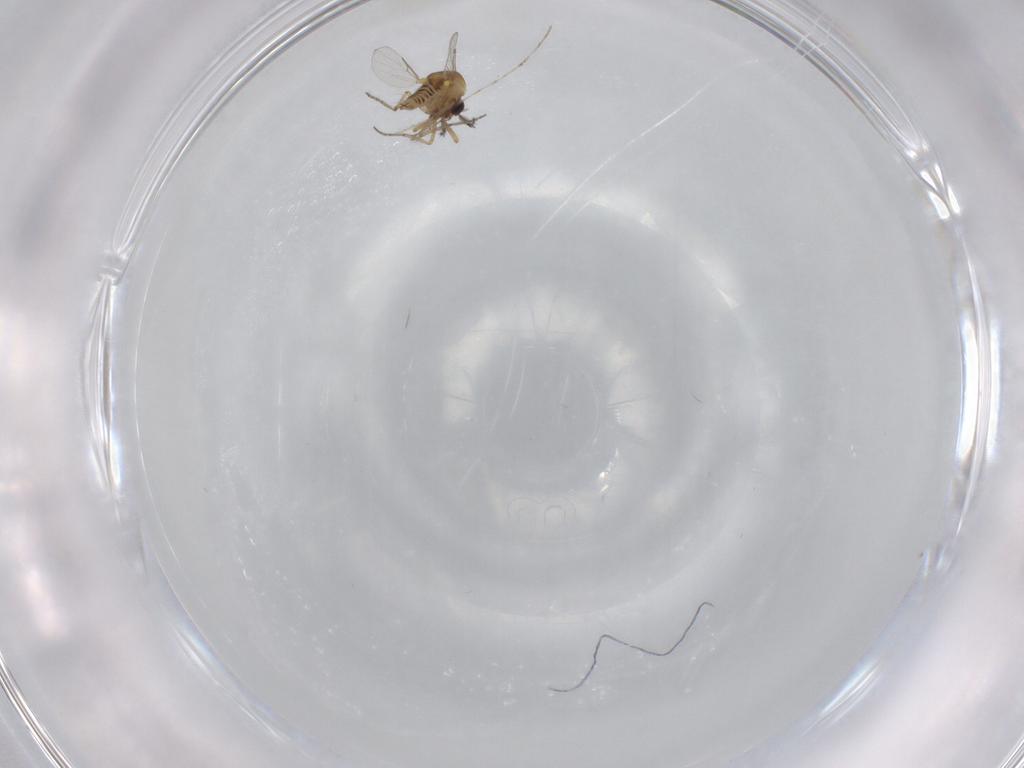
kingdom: Animalia
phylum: Arthropoda
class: Insecta
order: Diptera
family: Ceratopogonidae
